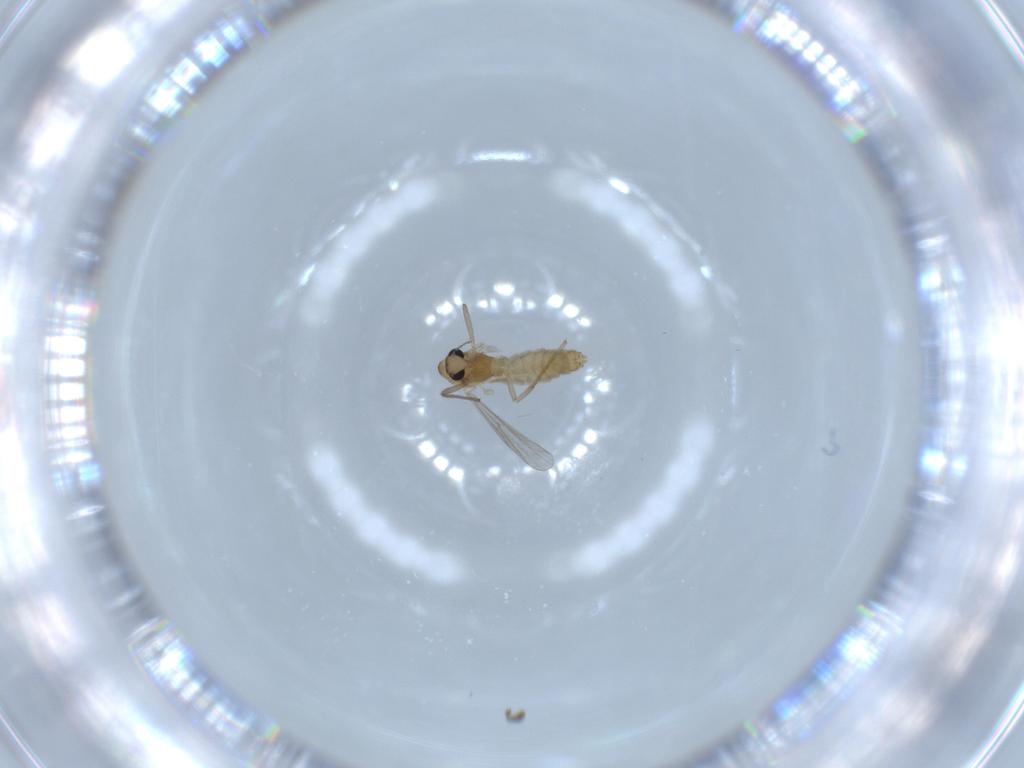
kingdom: Animalia
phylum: Arthropoda
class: Insecta
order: Diptera
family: Chironomidae
